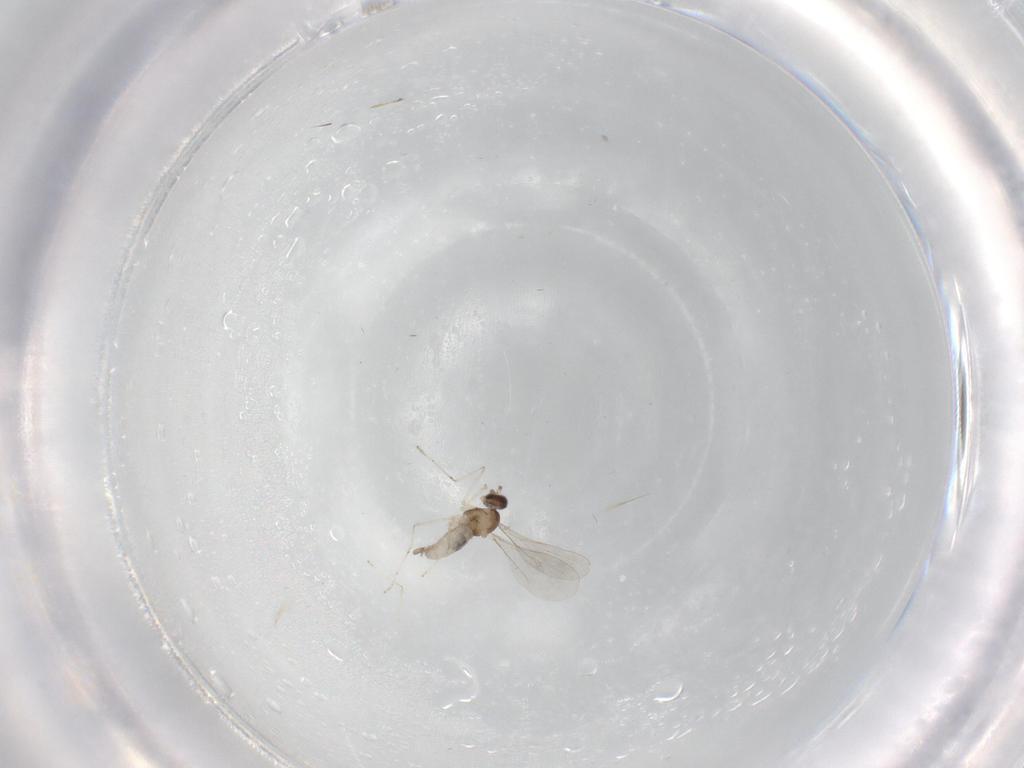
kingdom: Animalia
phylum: Arthropoda
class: Insecta
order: Diptera
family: Cecidomyiidae
